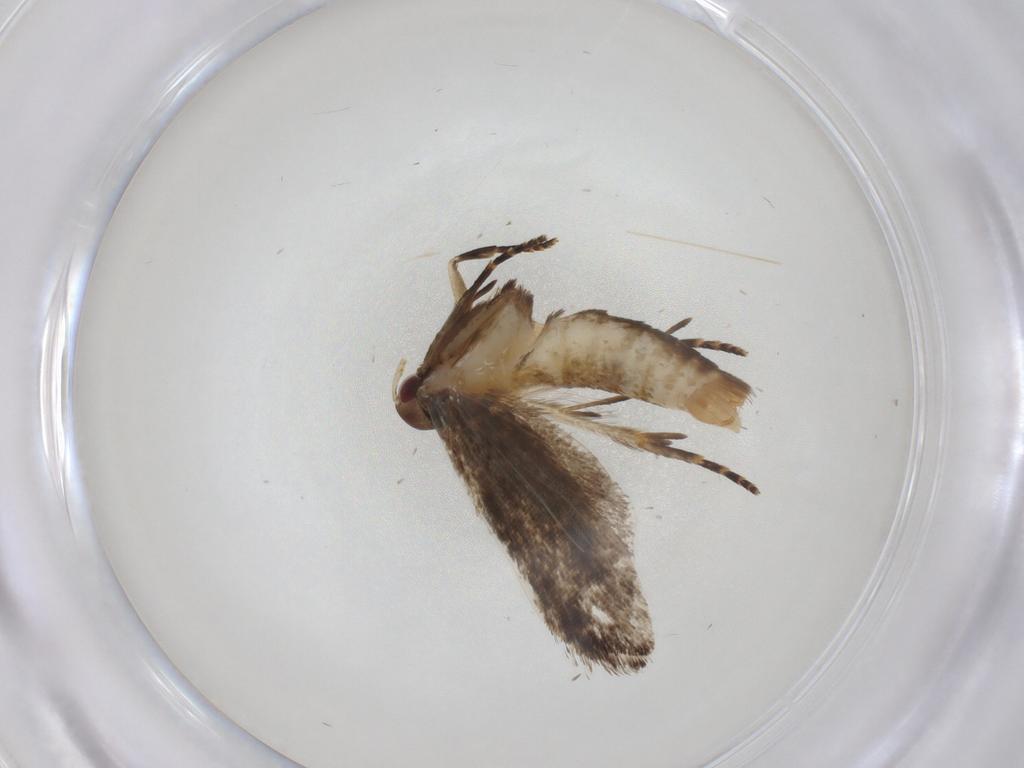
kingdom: Animalia
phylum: Arthropoda
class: Insecta
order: Lepidoptera
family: Gelechiidae
